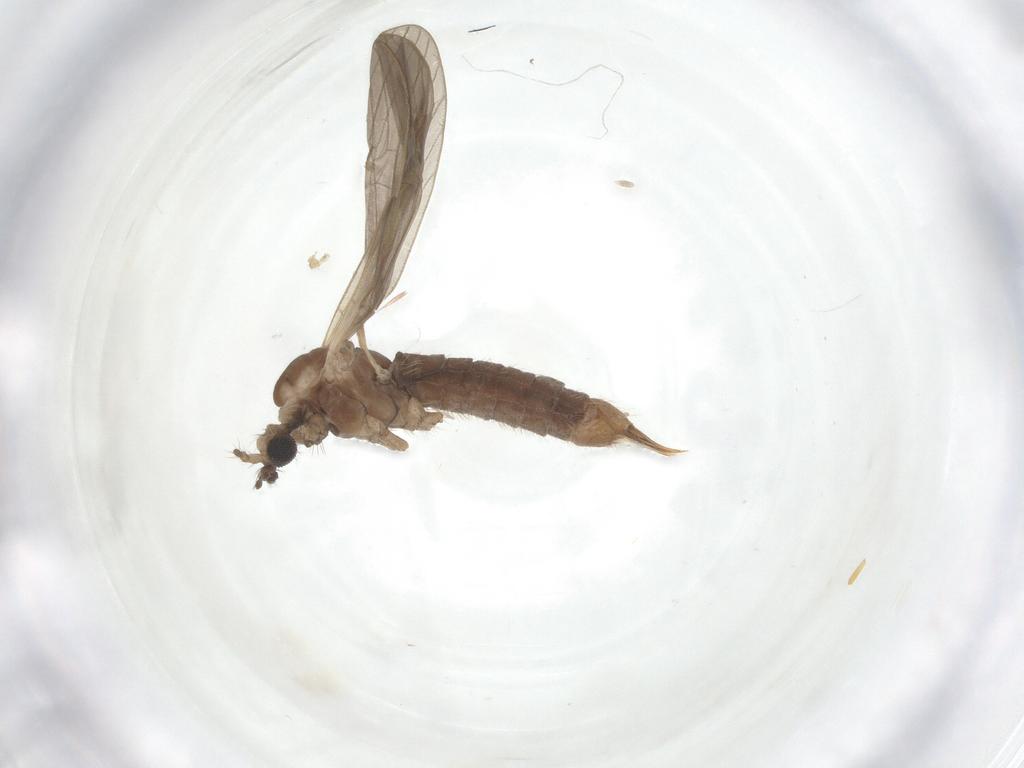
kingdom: Animalia
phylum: Arthropoda
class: Insecta
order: Diptera
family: Limoniidae
